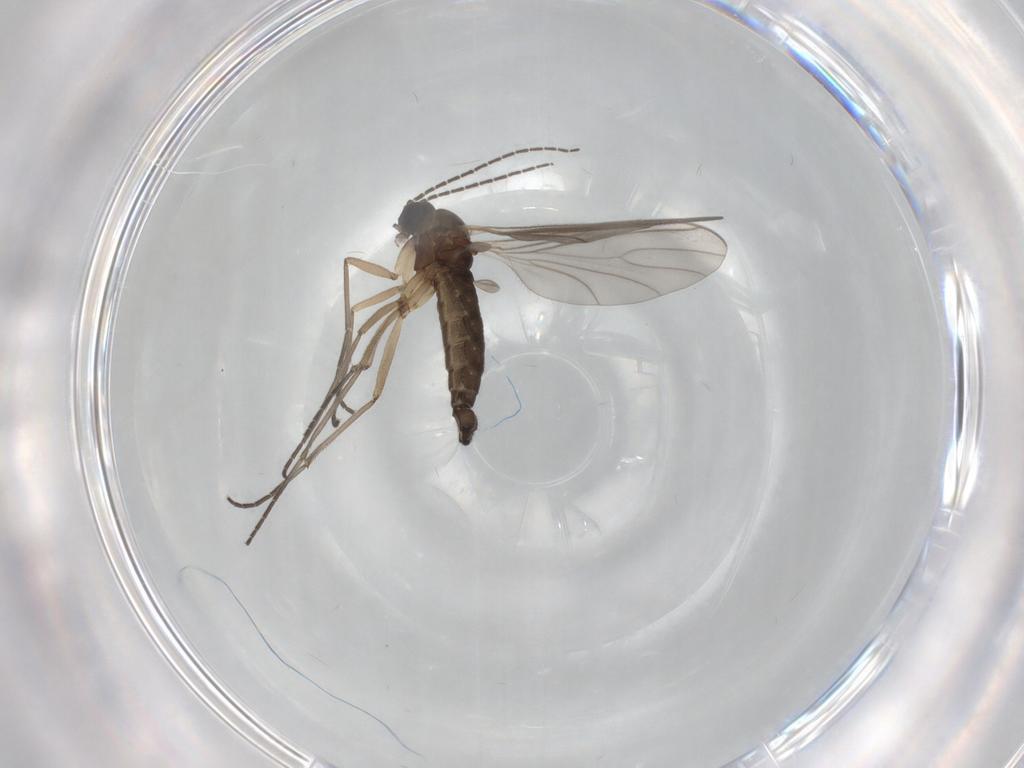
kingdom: Animalia
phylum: Arthropoda
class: Insecta
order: Diptera
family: Sciaridae
